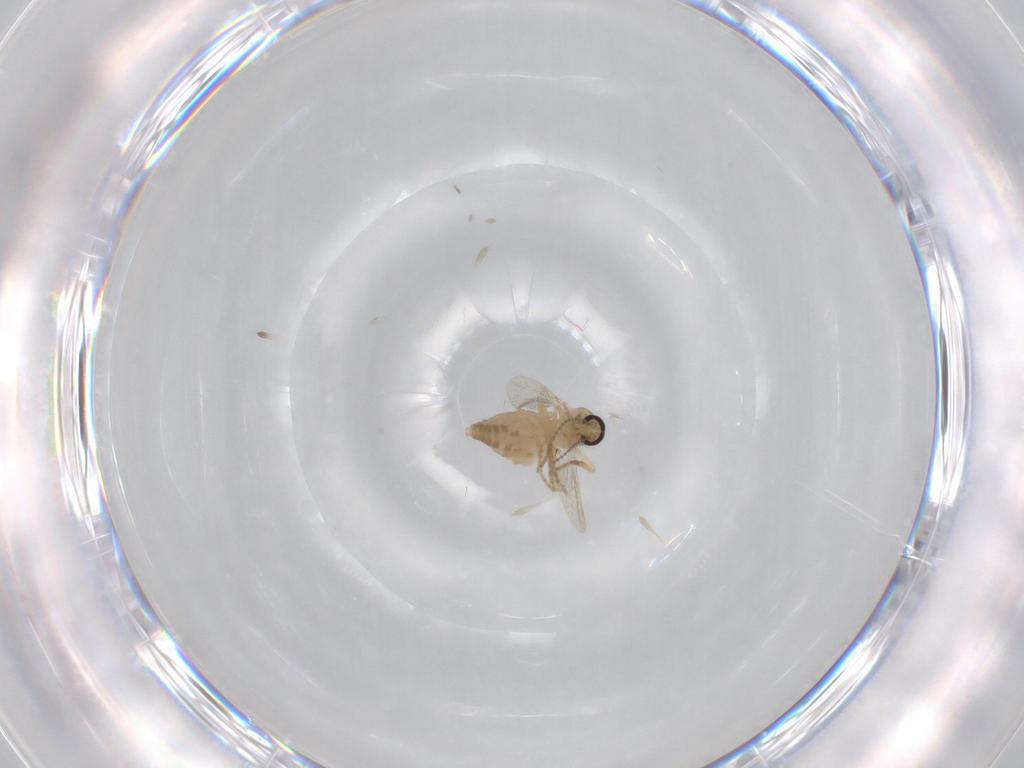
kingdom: Animalia
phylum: Arthropoda
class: Insecta
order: Diptera
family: Ceratopogonidae
